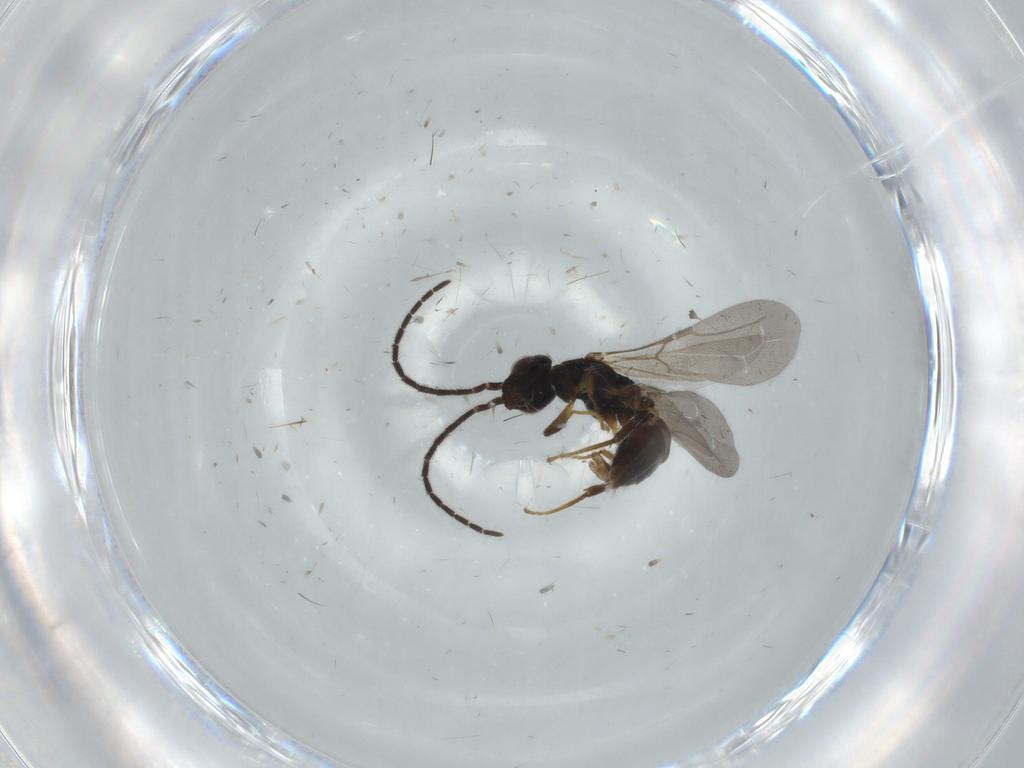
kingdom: Animalia
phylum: Arthropoda
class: Insecta
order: Hymenoptera
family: Bethylidae
